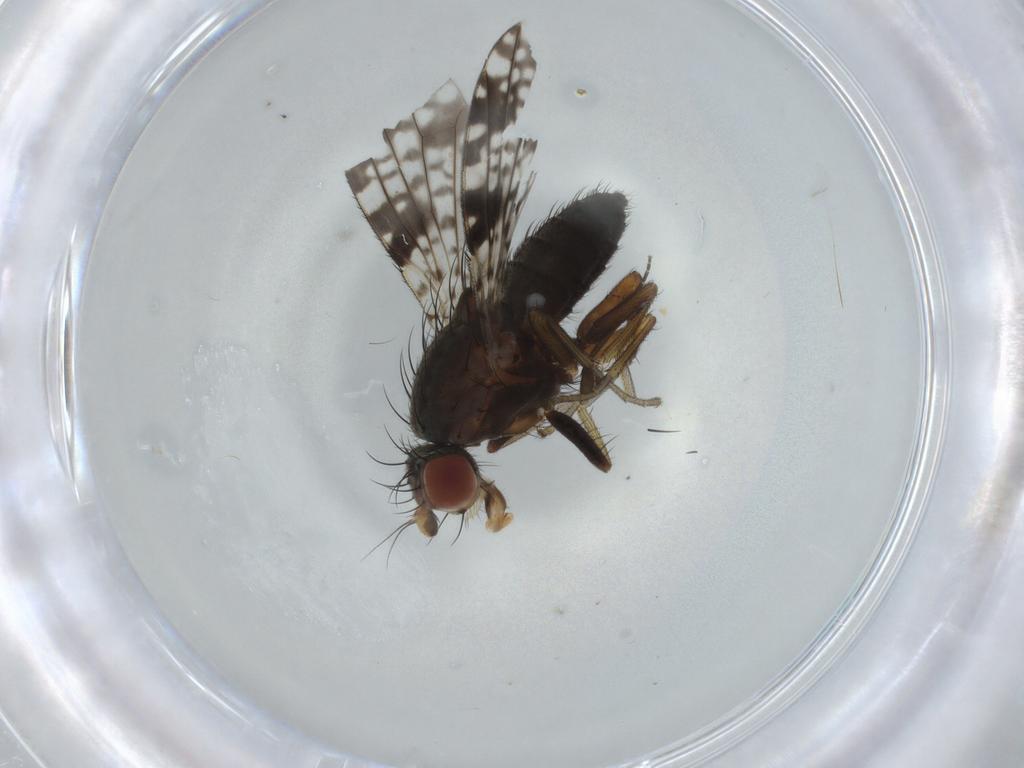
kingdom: Animalia
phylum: Arthropoda
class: Insecta
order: Diptera
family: Tephritidae
